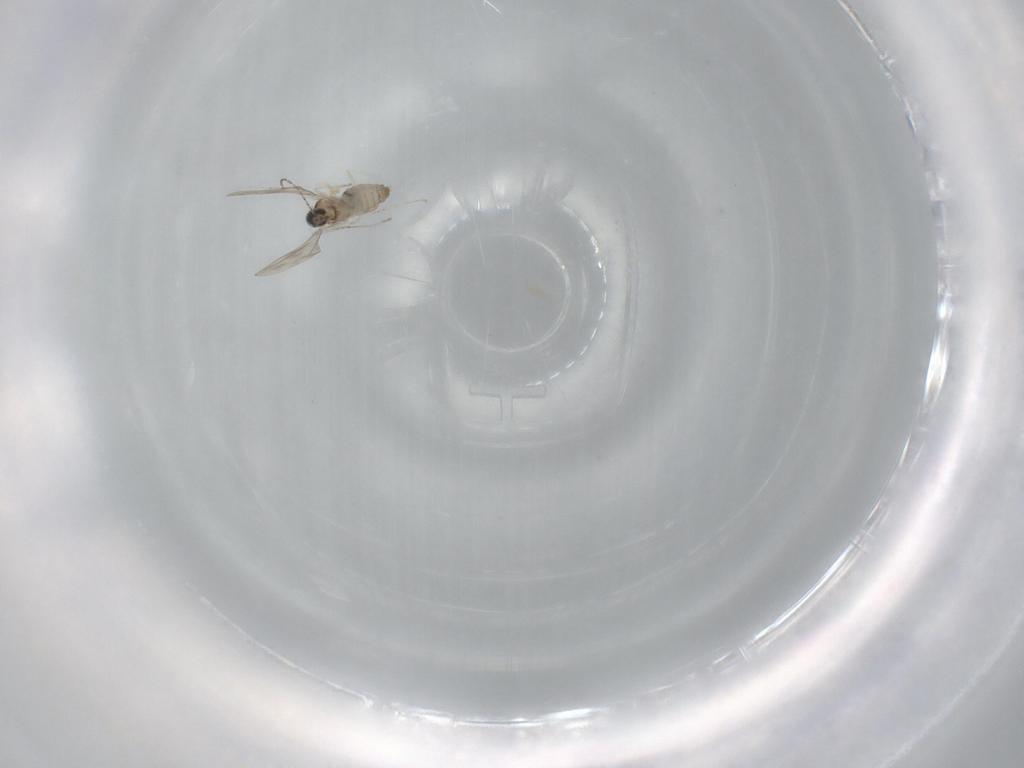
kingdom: Animalia
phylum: Arthropoda
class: Insecta
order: Diptera
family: Cecidomyiidae
